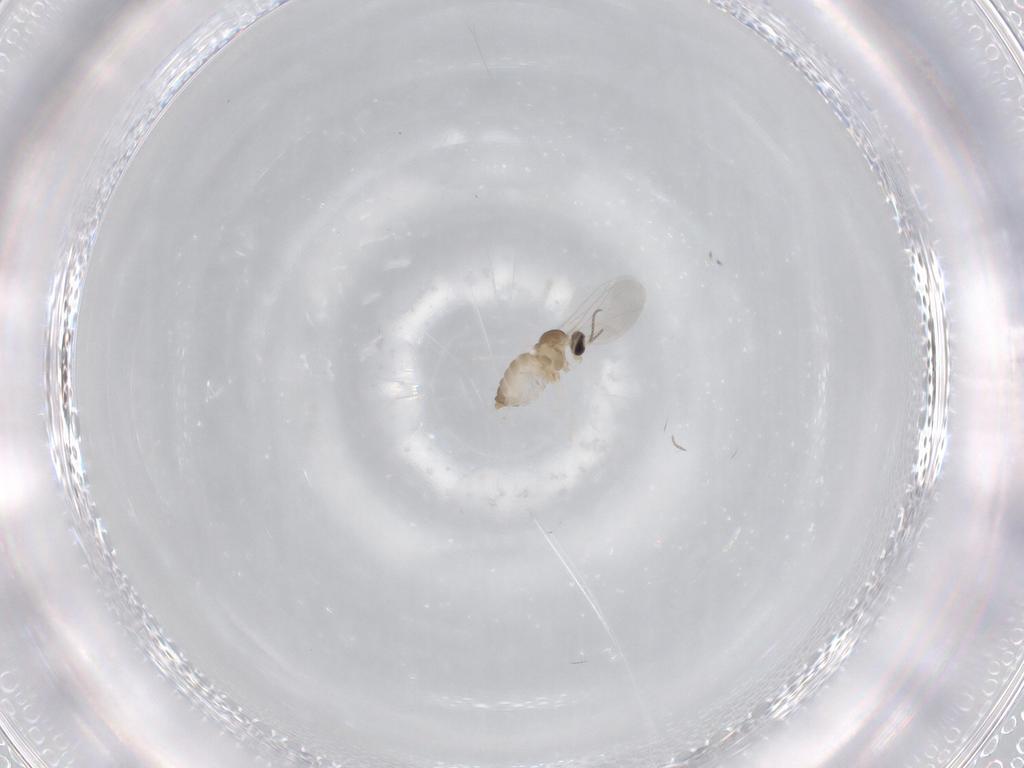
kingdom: Animalia
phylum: Arthropoda
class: Insecta
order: Diptera
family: Cecidomyiidae
